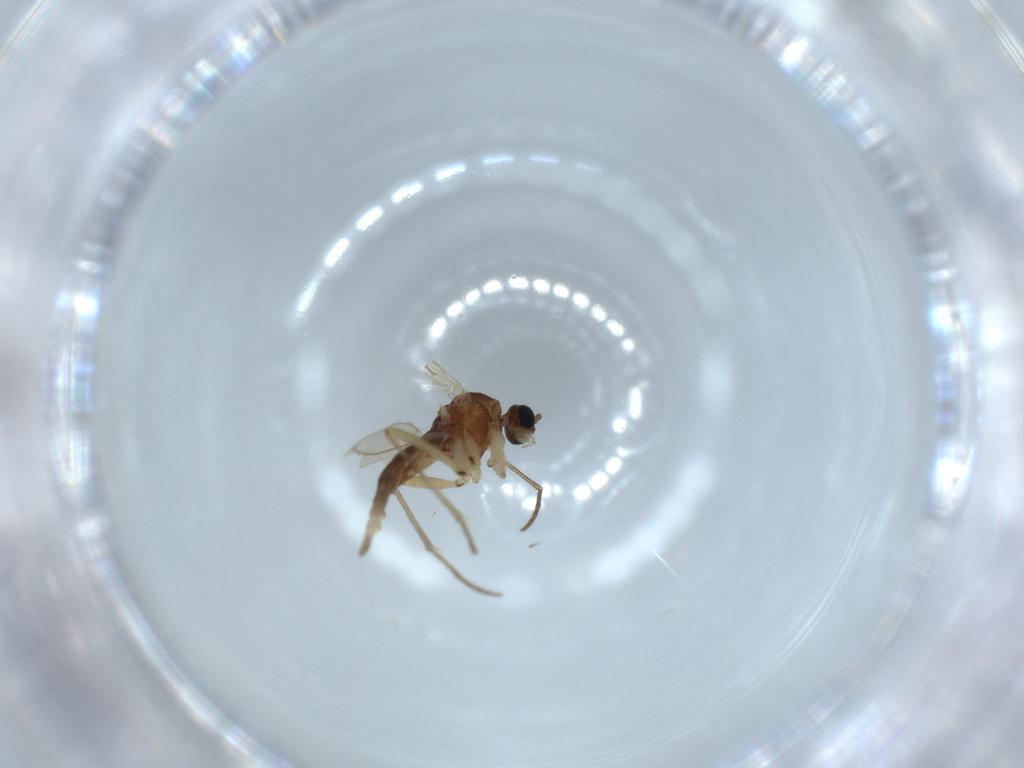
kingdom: Animalia
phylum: Arthropoda
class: Insecta
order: Diptera
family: Sciaridae
